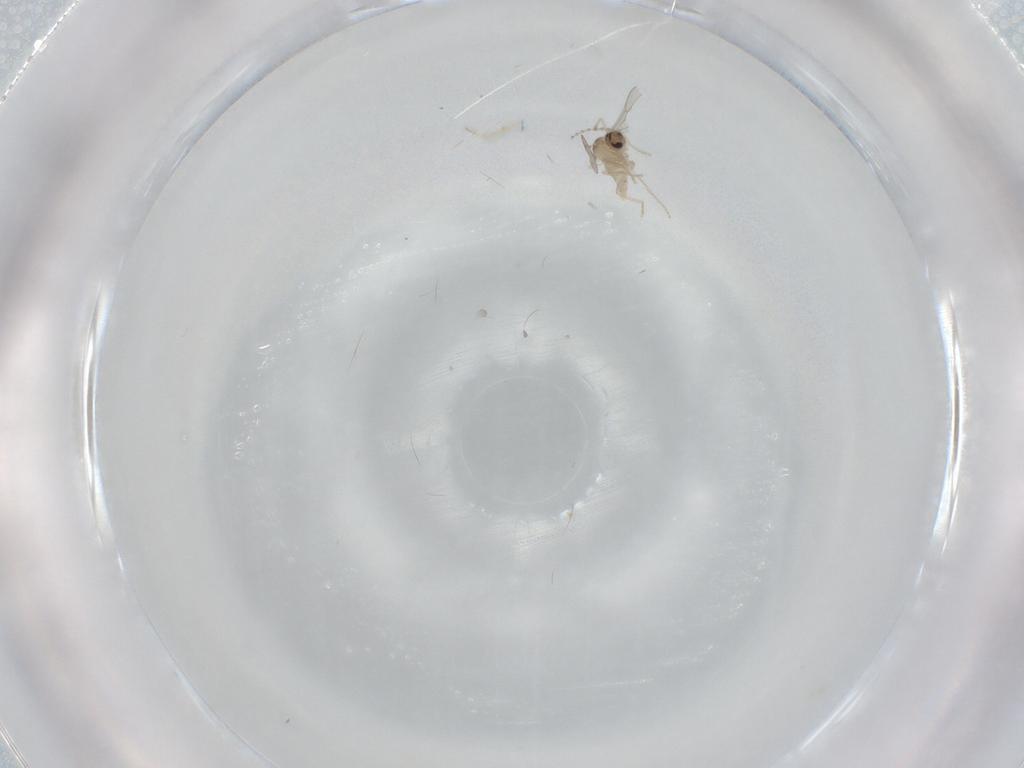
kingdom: Animalia
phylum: Arthropoda
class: Insecta
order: Diptera
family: Cecidomyiidae
